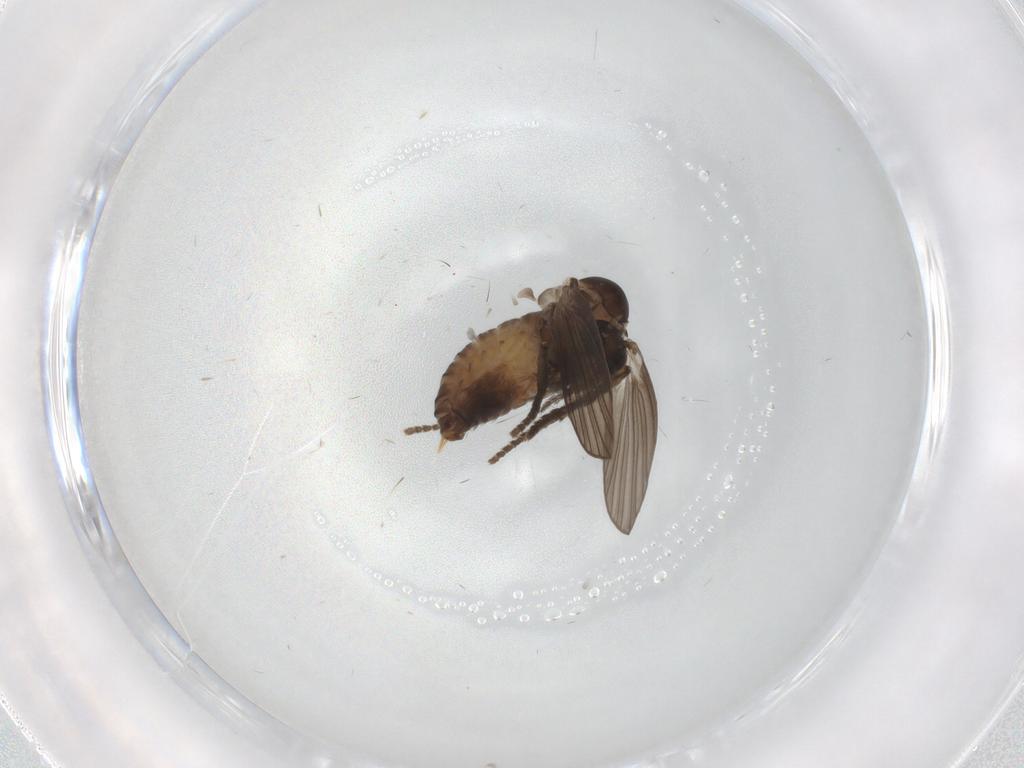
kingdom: Animalia
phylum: Arthropoda
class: Insecta
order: Diptera
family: Psychodidae
